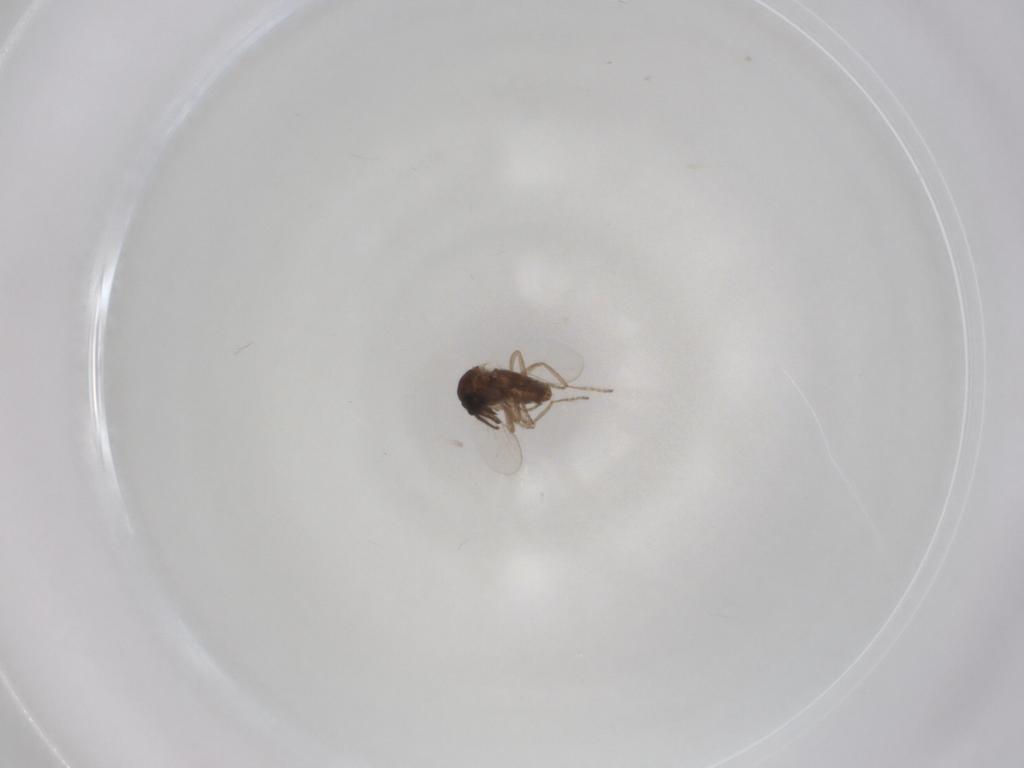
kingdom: Animalia
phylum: Arthropoda
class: Insecta
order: Diptera
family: Ceratopogonidae
